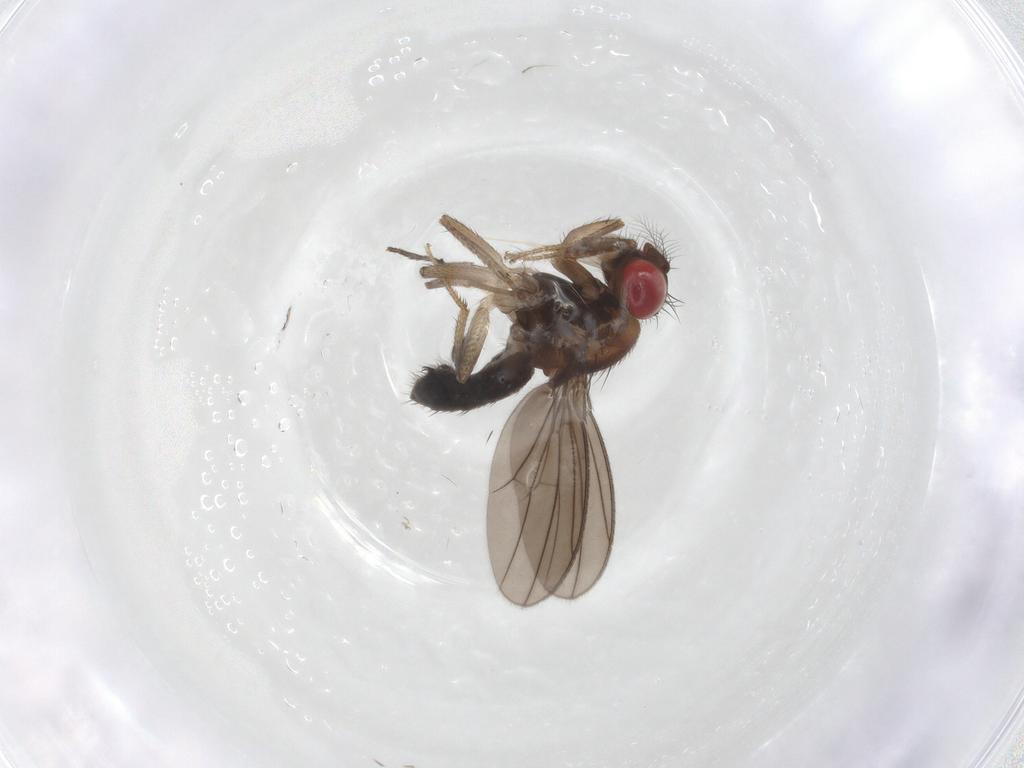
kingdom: Animalia
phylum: Arthropoda
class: Insecta
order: Diptera
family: Drosophilidae
